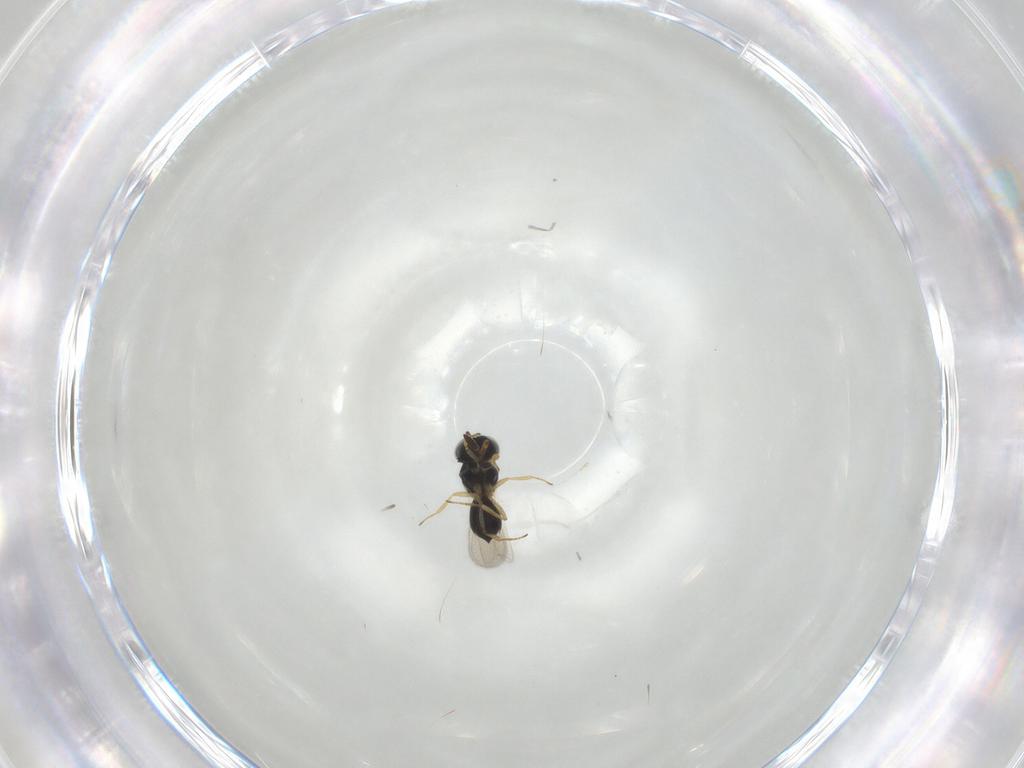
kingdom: Animalia
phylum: Arthropoda
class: Insecta
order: Hymenoptera
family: Scelionidae
